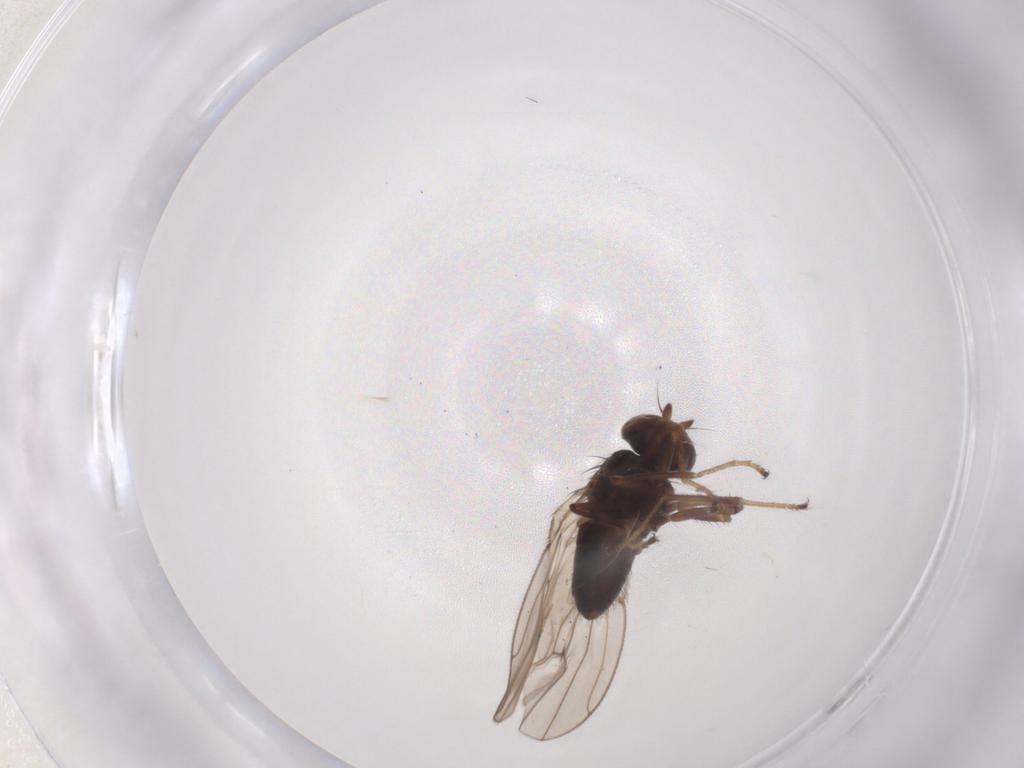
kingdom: Animalia
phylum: Arthropoda
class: Insecta
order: Diptera
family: Ephydridae
